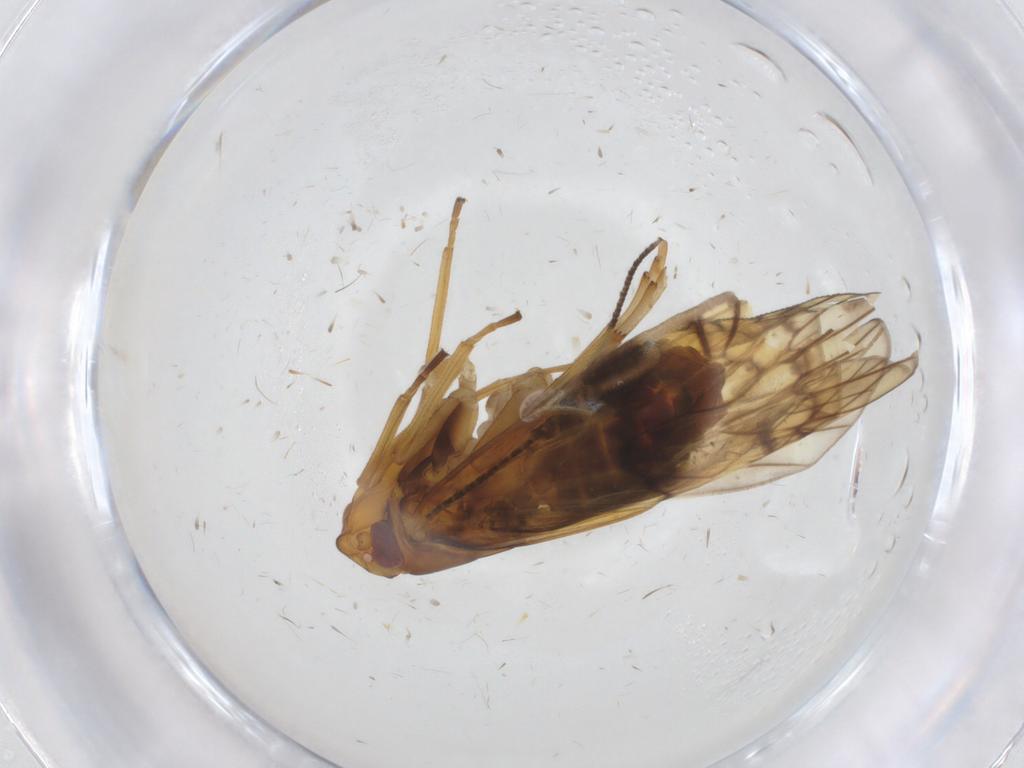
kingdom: Animalia
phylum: Arthropoda
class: Insecta
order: Hemiptera
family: Cixiidae
